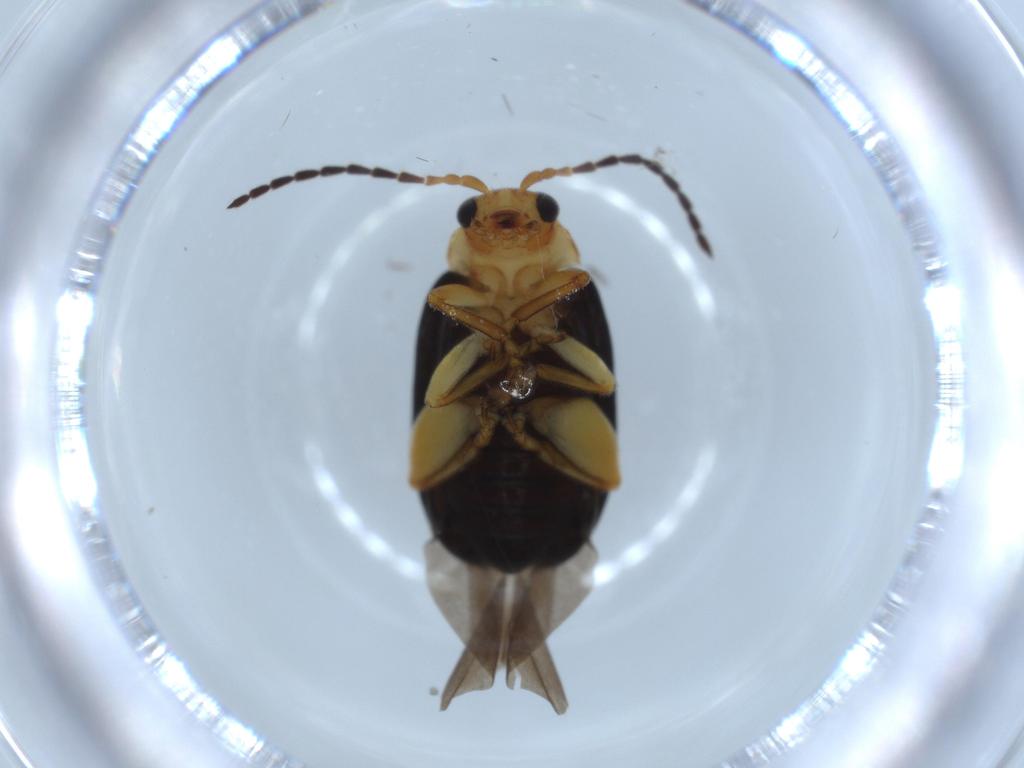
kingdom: Animalia
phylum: Arthropoda
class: Insecta
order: Coleoptera
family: Chrysomelidae
